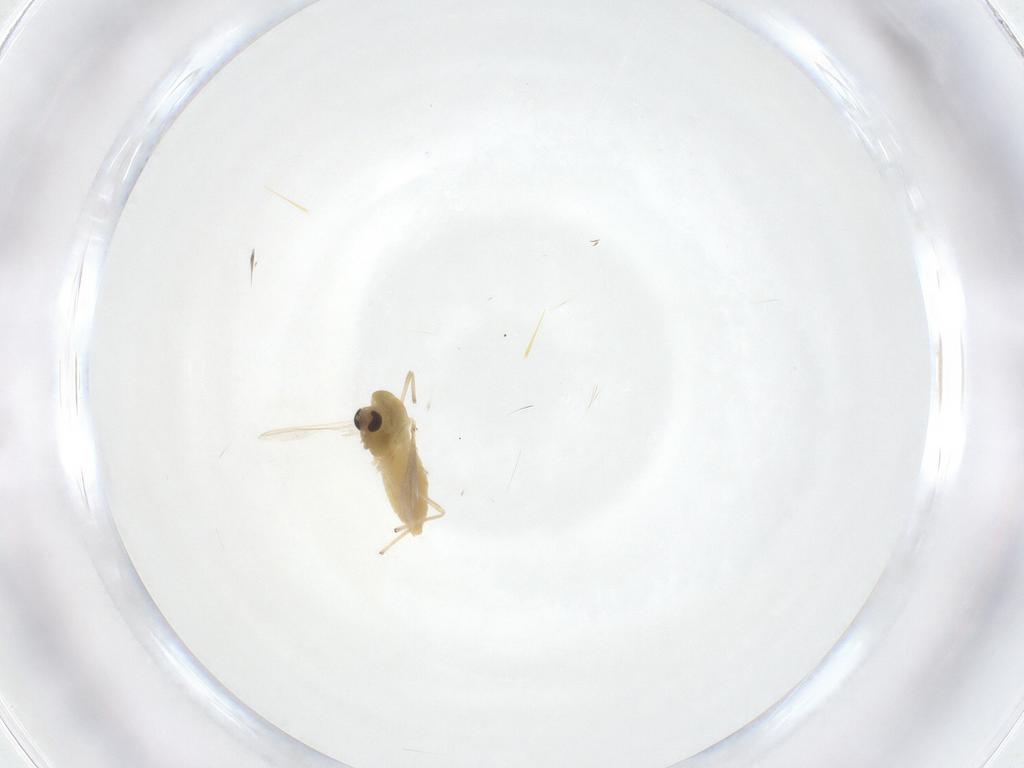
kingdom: Animalia
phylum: Arthropoda
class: Insecta
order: Diptera
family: Chironomidae
